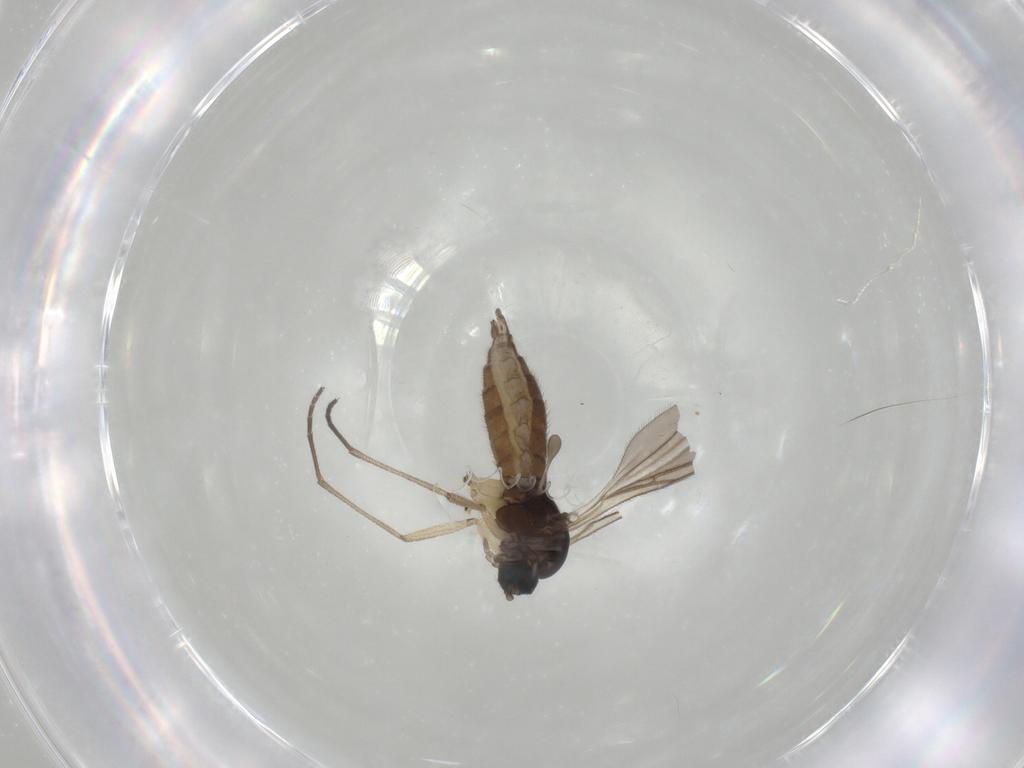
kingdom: Animalia
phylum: Arthropoda
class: Insecta
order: Diptera
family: Sciaridae
